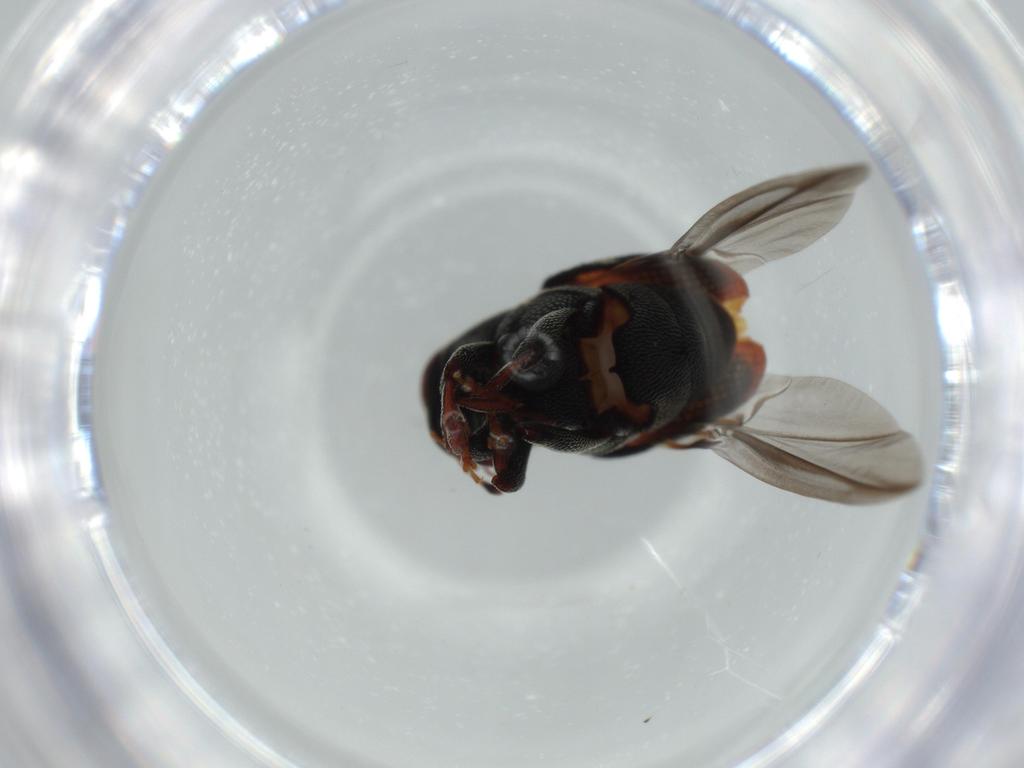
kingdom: Animalia
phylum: Arthropoda
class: Insecta
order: Coleoptera
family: Curculionidae
